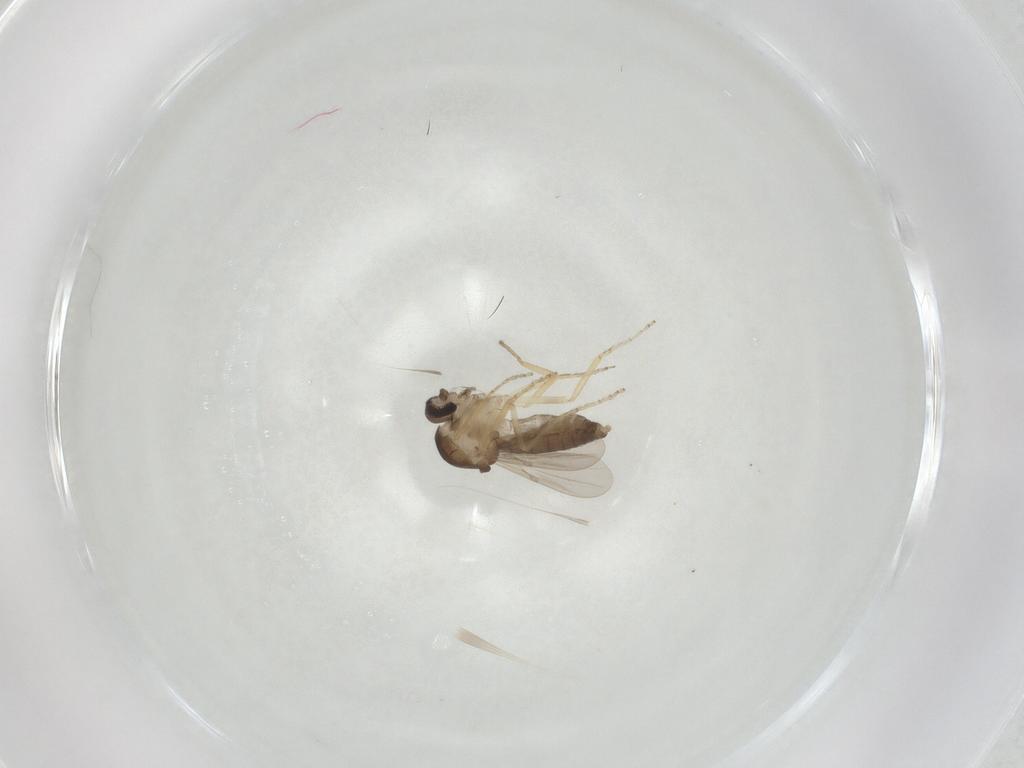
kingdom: Animalia
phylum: Arthropoda
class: Insecta
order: Diptera
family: Ceratopogonidae
